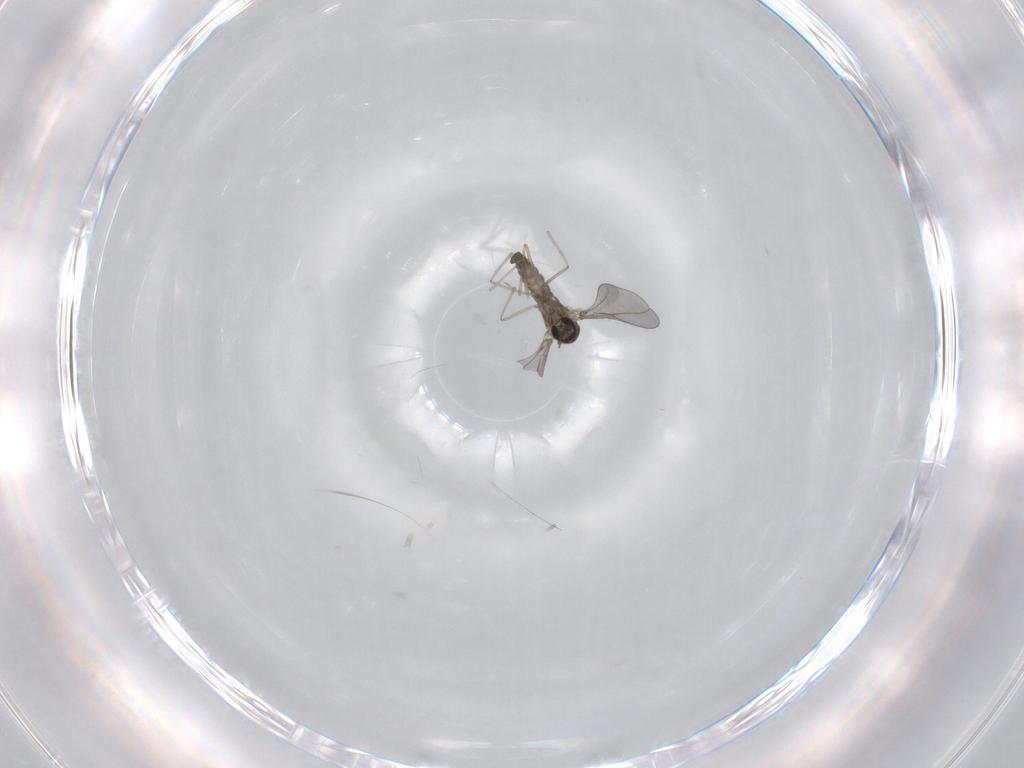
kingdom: Animalia
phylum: Arthropoda
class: Insecta
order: Diptera
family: Cecidomyiidae
